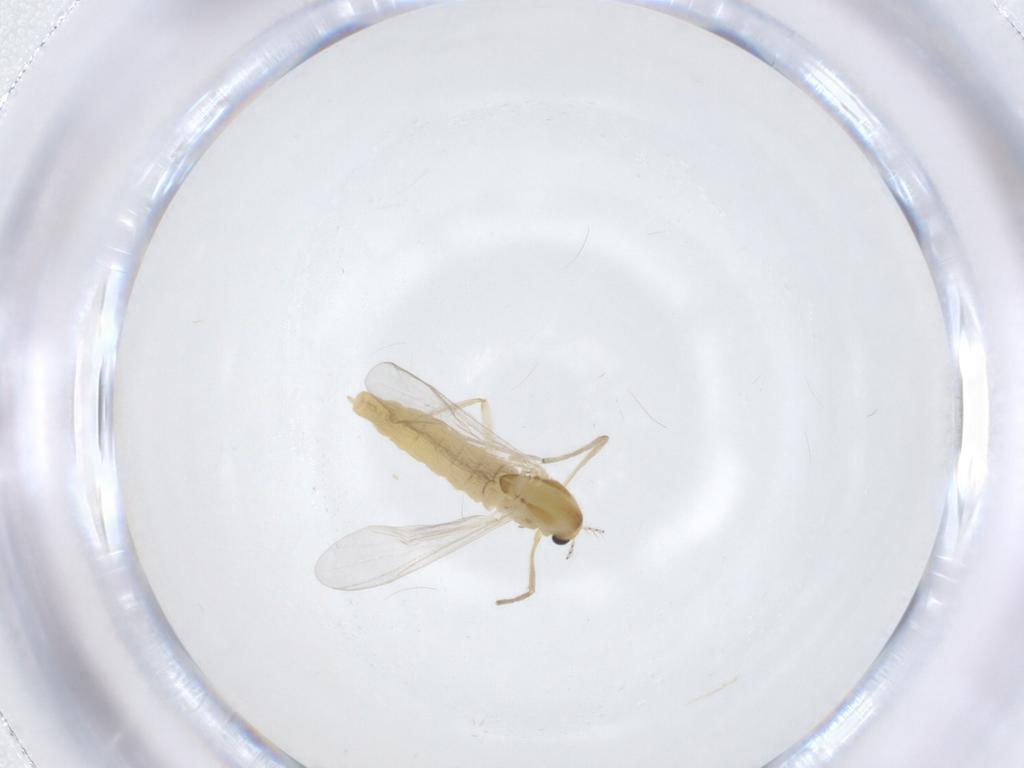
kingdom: Animalia
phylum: Arthropoda
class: Insecta
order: Diptera
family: Chironomidae
